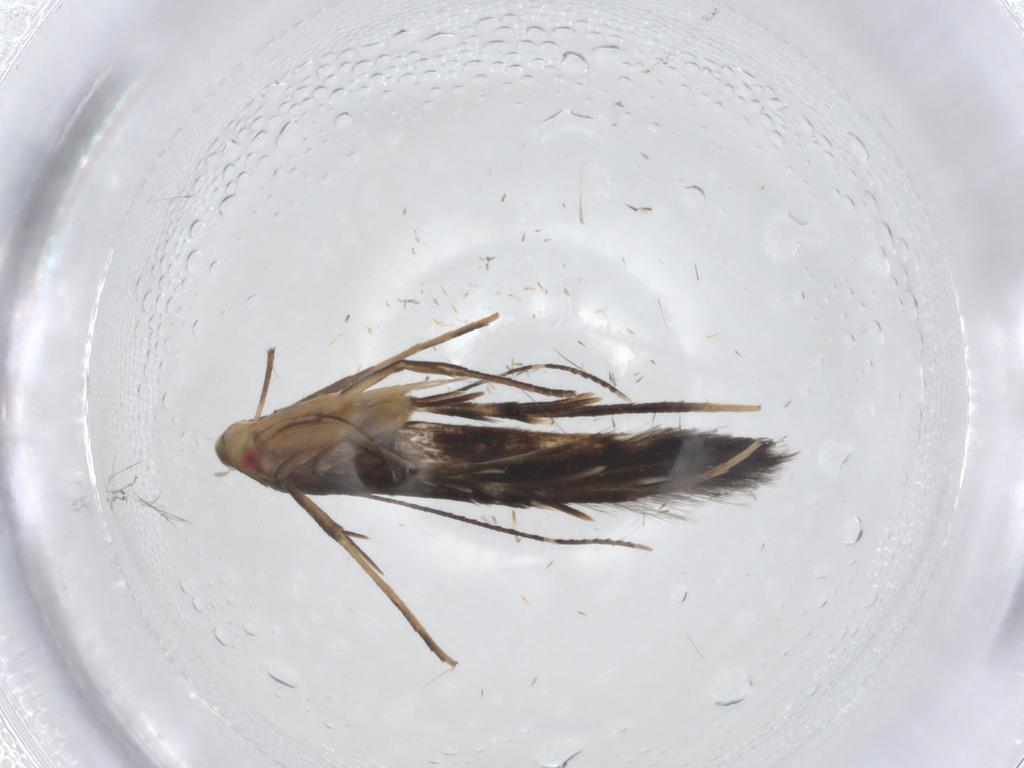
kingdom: Animalia
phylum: Arthropoda
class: Insecta
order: Lepidoptera
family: Cosmopterigidae
